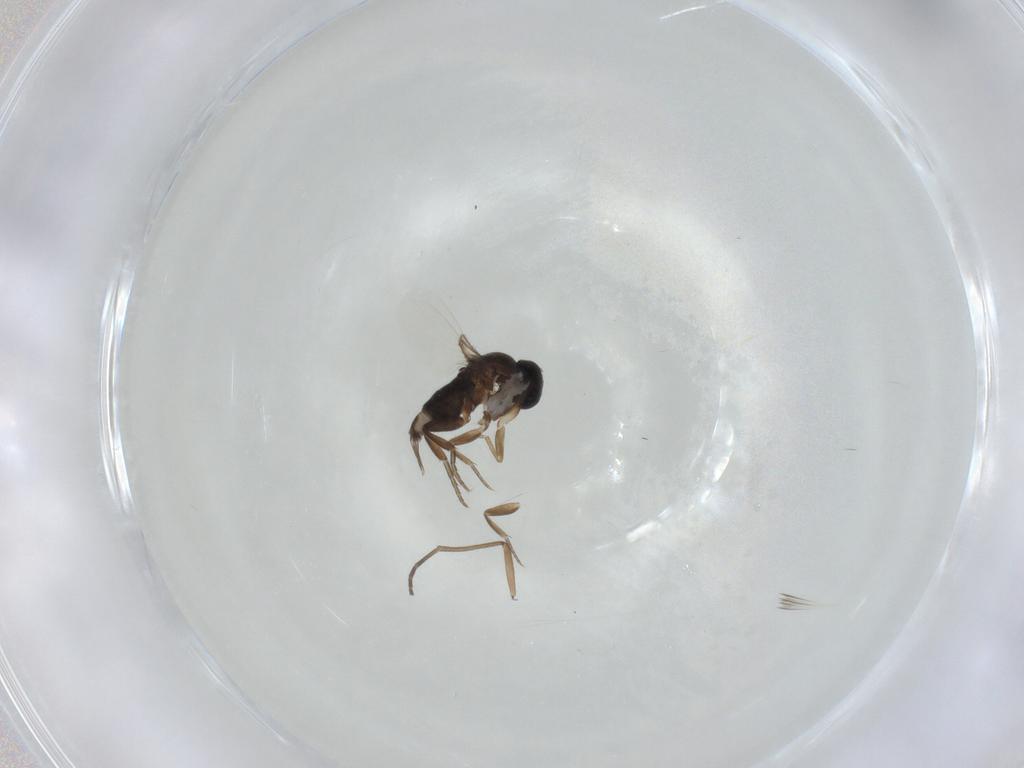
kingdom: Animalia
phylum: Arthropoda
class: Insecta
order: Diptera
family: Phoridae
